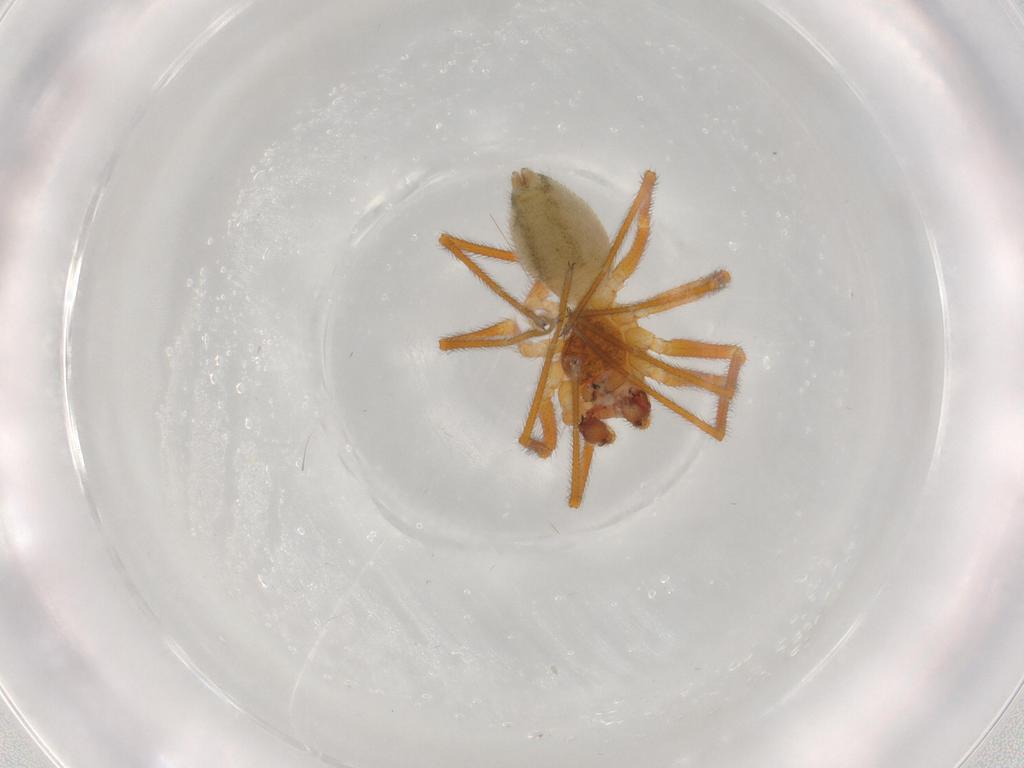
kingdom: Animalia
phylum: Arthropoda
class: Arachnida
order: Araneae
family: Linyphiidae
